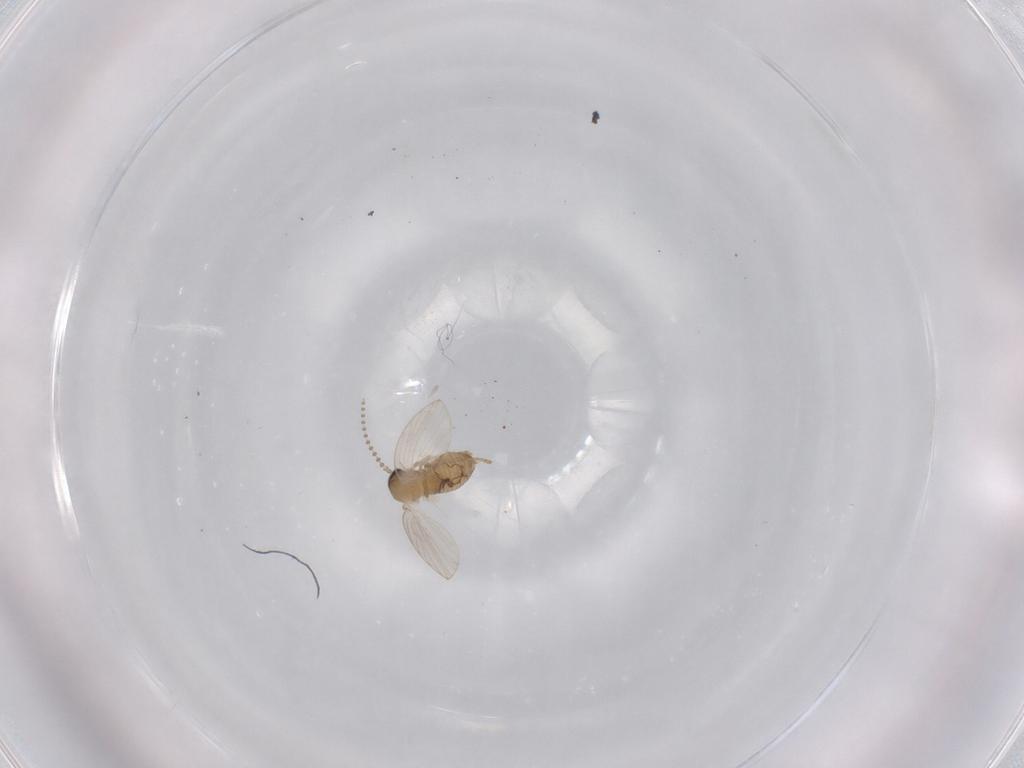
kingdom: Animalia
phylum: Arthropoda
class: Insecta
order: Diptera
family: Psychodidae
